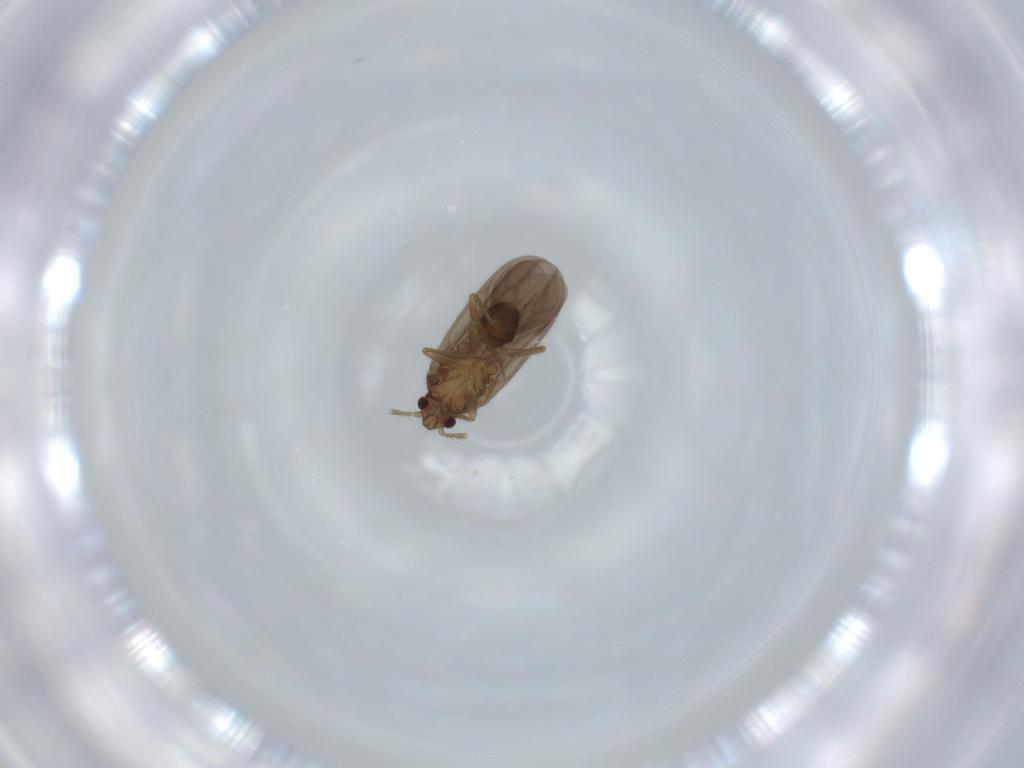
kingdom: Animalia
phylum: Arthropoda
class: Insecta
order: Hemiptera
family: Ceratocombidae
